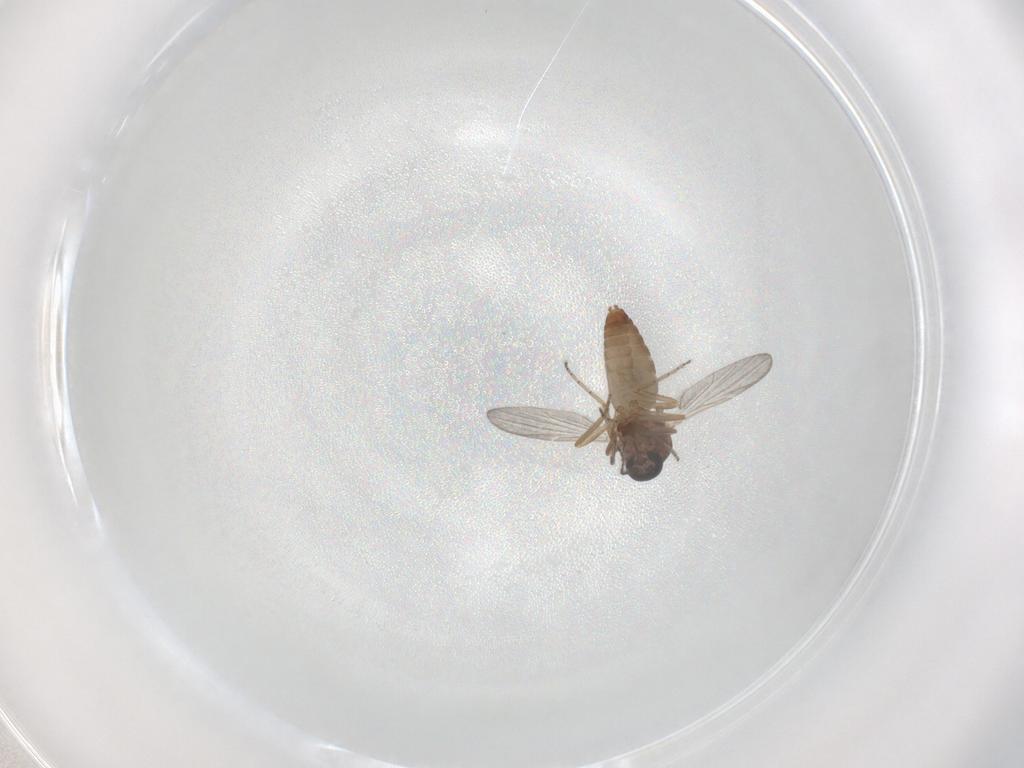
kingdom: Animalia
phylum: Arthropoda
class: Insecta
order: Diptera
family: Ceratopogonidae
